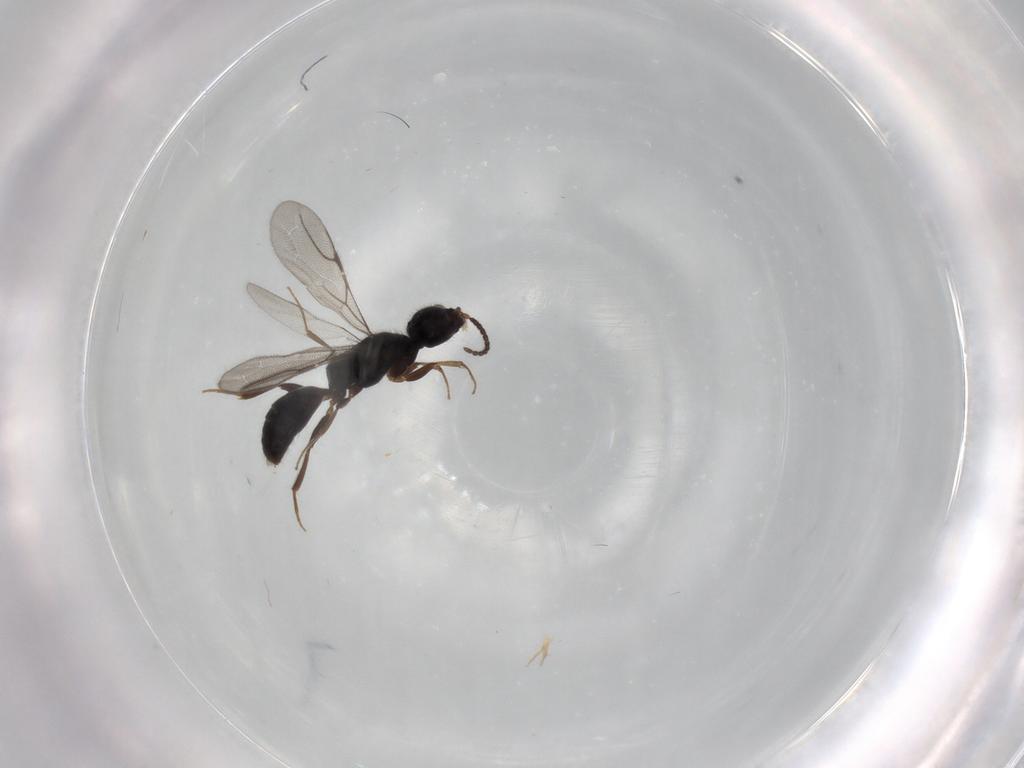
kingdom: Animalia
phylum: Arthropoda
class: Insecta
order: Hymenoptera
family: Bethylidae
